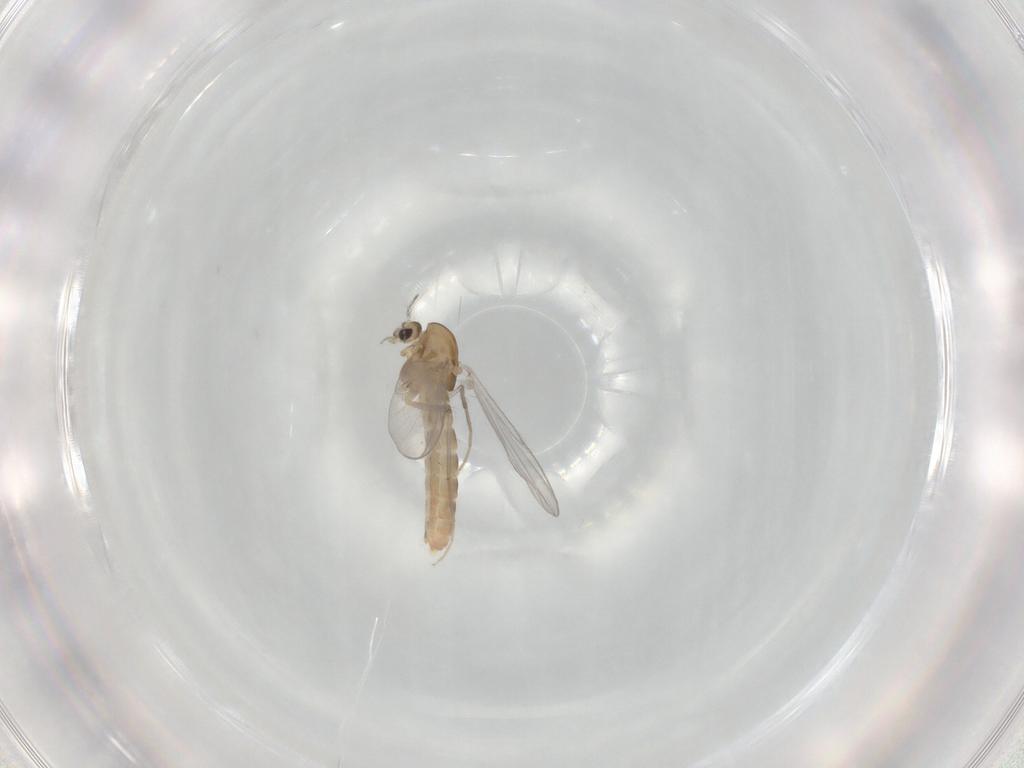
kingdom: Animalia
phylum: Arthropoda
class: Insecta
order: Diptera
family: Chironomidae
